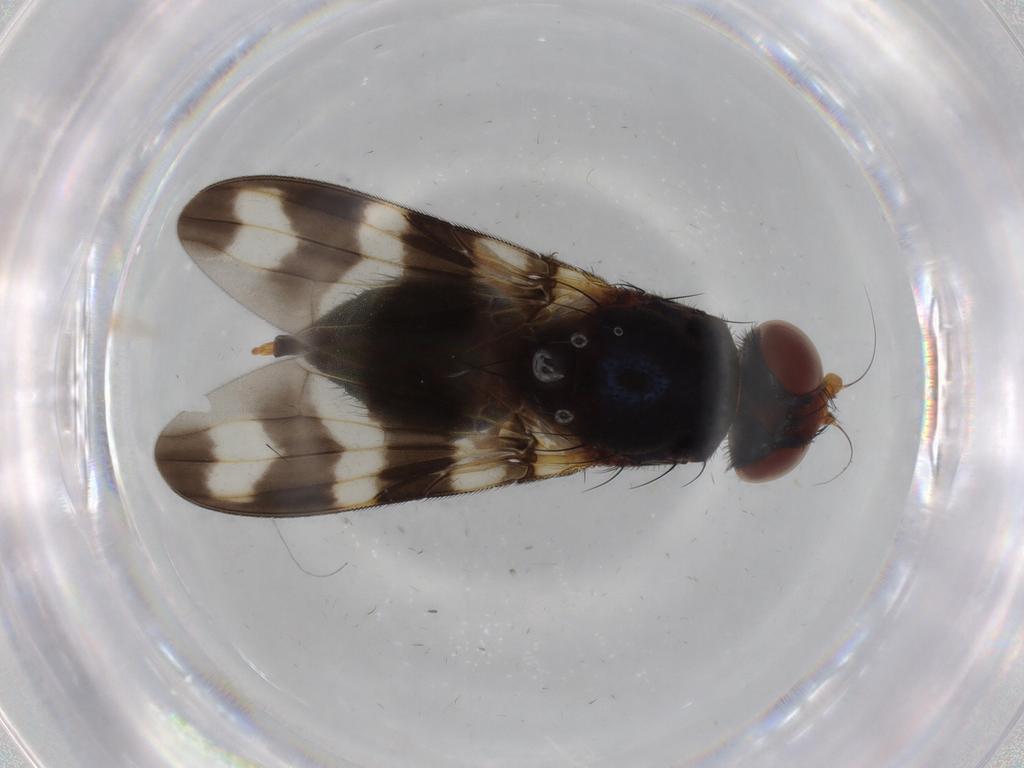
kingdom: Animalia
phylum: Arthropoda
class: Insecta
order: Diptera
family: Ulidiidae
